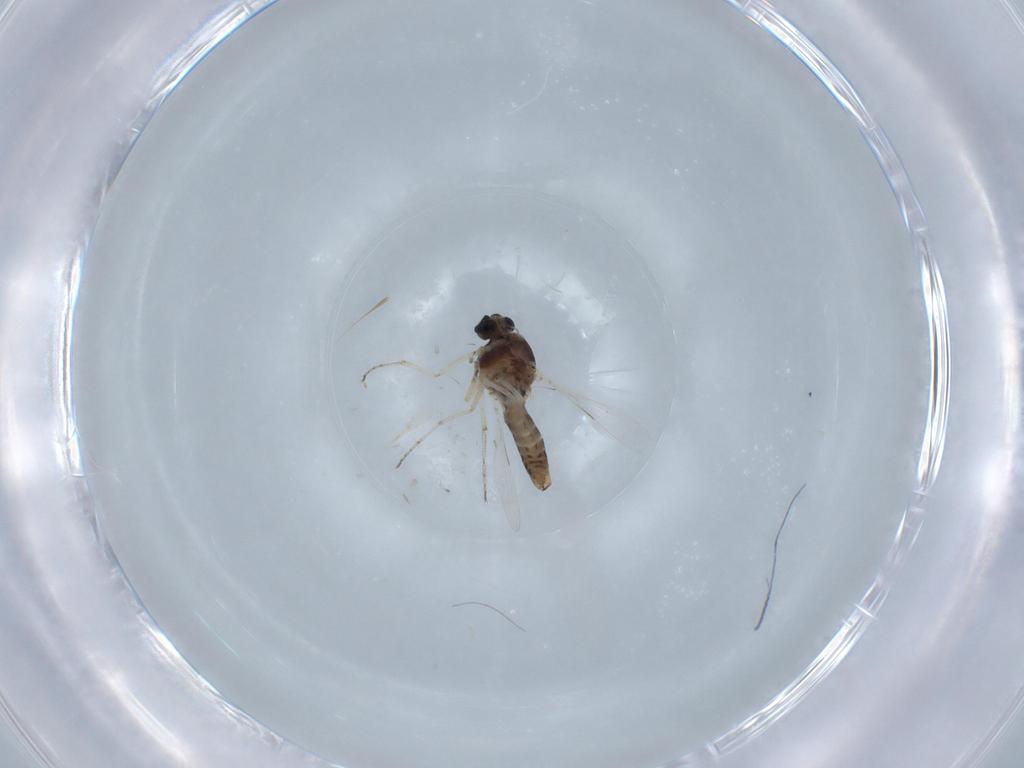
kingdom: Animalia
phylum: Arthropoda
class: Insecta
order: Diptera
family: Ceratopogonidae
